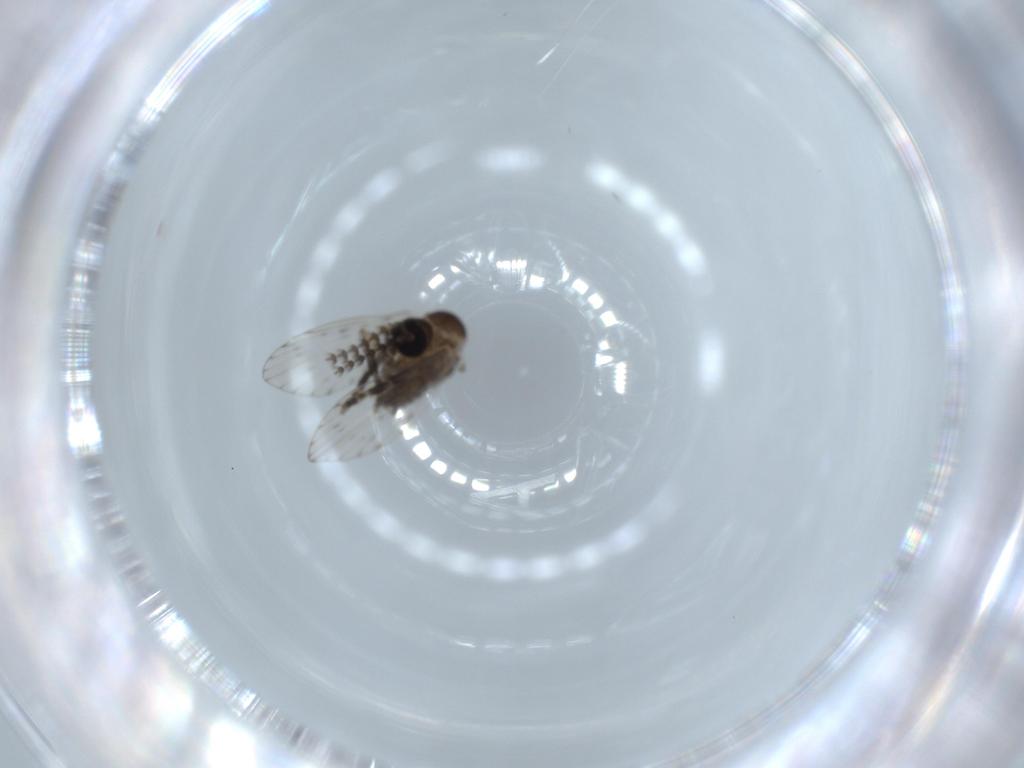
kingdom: Animalia
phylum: Arthropoda
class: Insecta
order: Diptera
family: Psychodidae
